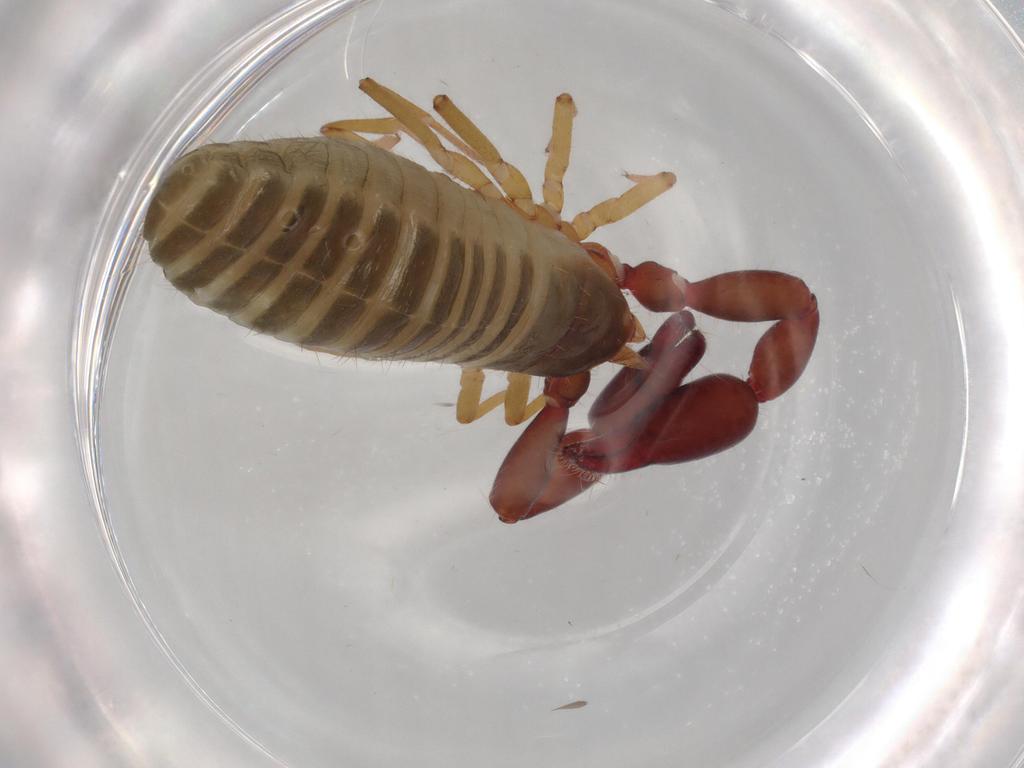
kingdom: Animalia
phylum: Arthropoda
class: Arachnida
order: Pseudoscorpiones
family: Chernetidae
